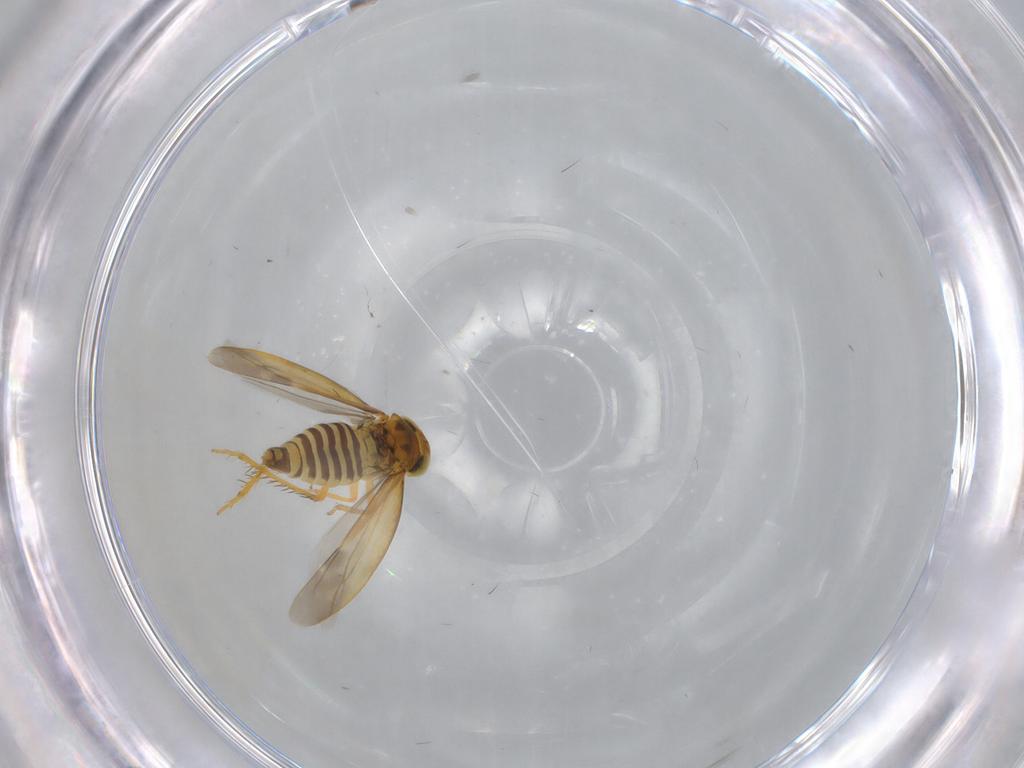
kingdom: Animalia
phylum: Arthropoda
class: Insecta
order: Hemiptera
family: Cicadellidae
